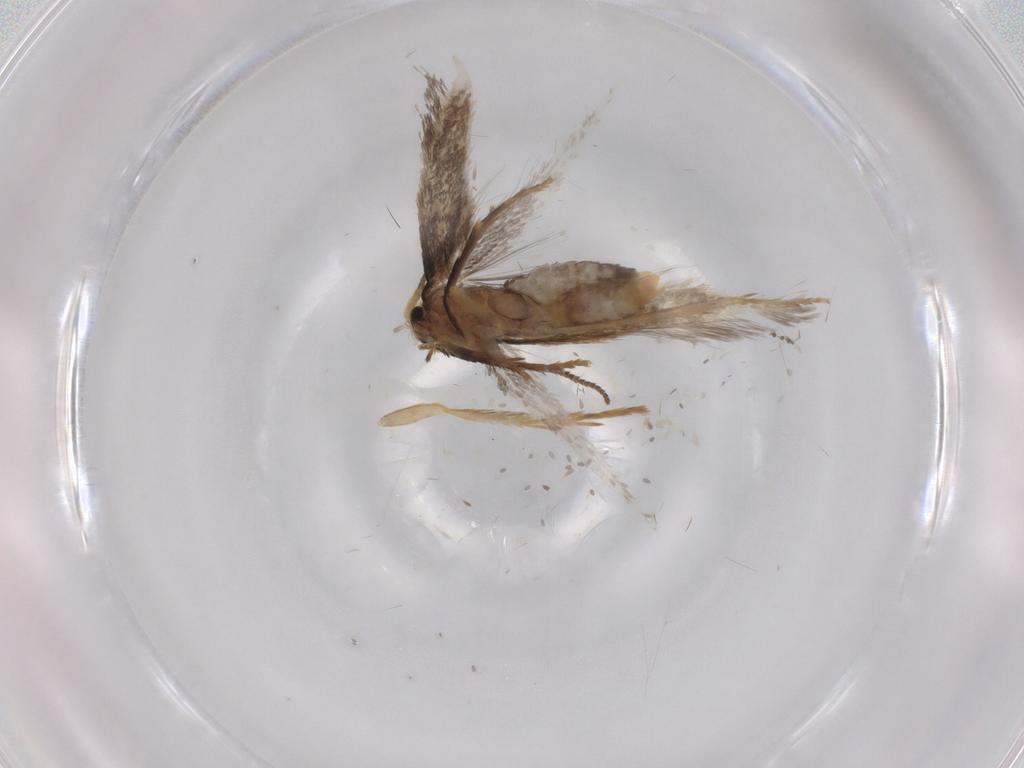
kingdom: Animalia
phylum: Arthropoda
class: Insecta
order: Lepidoptera
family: Nepticulidae
